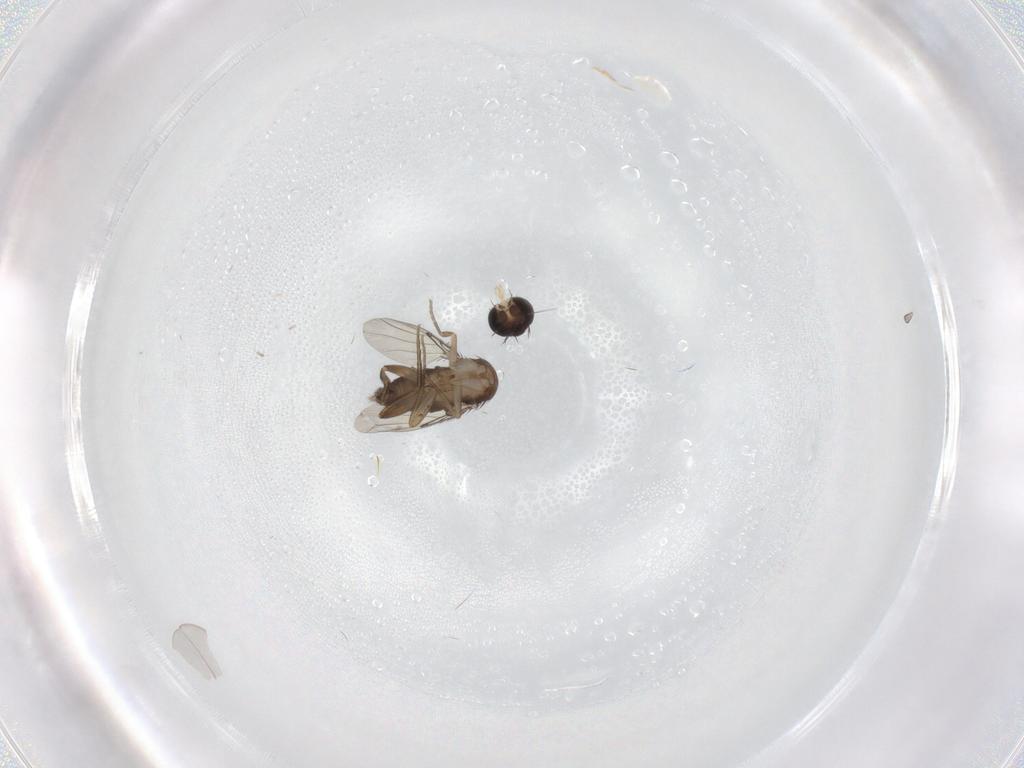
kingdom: Animalia
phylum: Arthropoda
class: Insecta
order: Diptera
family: Phoridae
